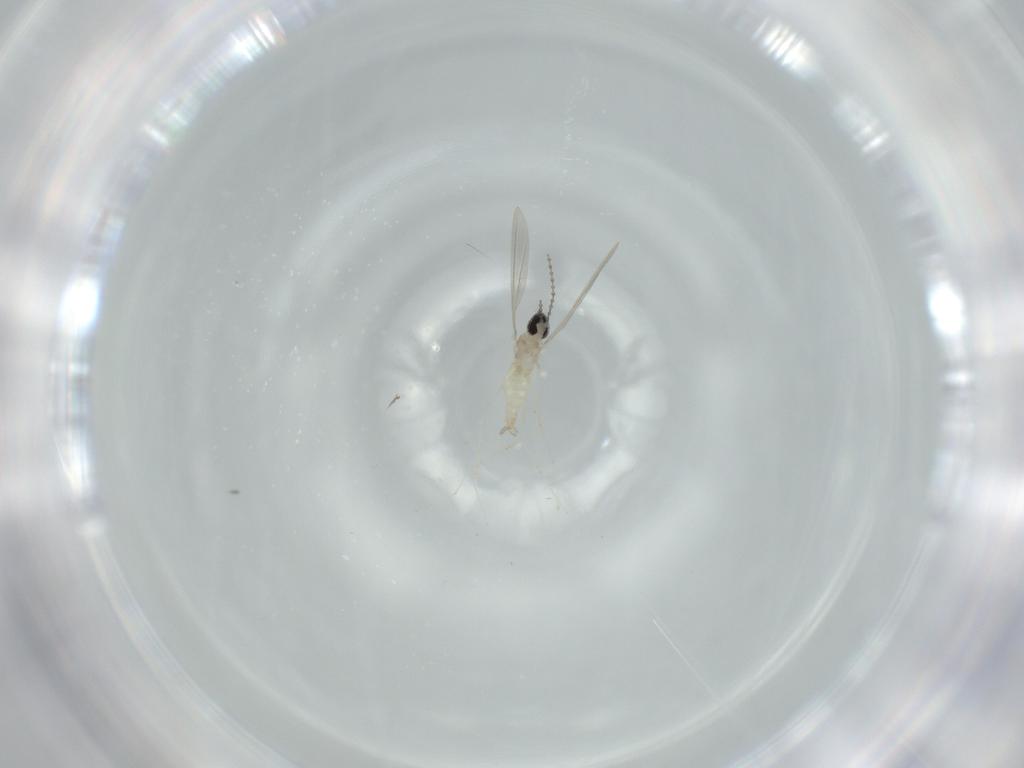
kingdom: Animalia
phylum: Arthropoda
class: Insecta
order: Diptera
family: Cecidomyiidae
